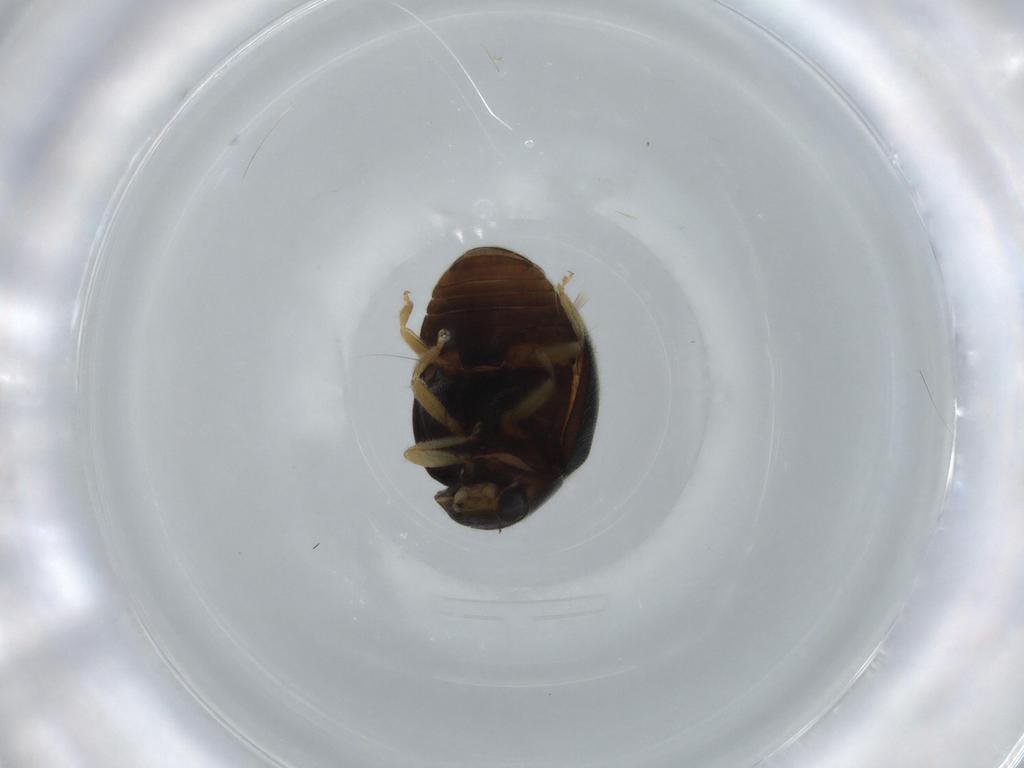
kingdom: Animalia
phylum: Arthropoda
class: Insecta
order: Coleoptera
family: Coccinellidae
